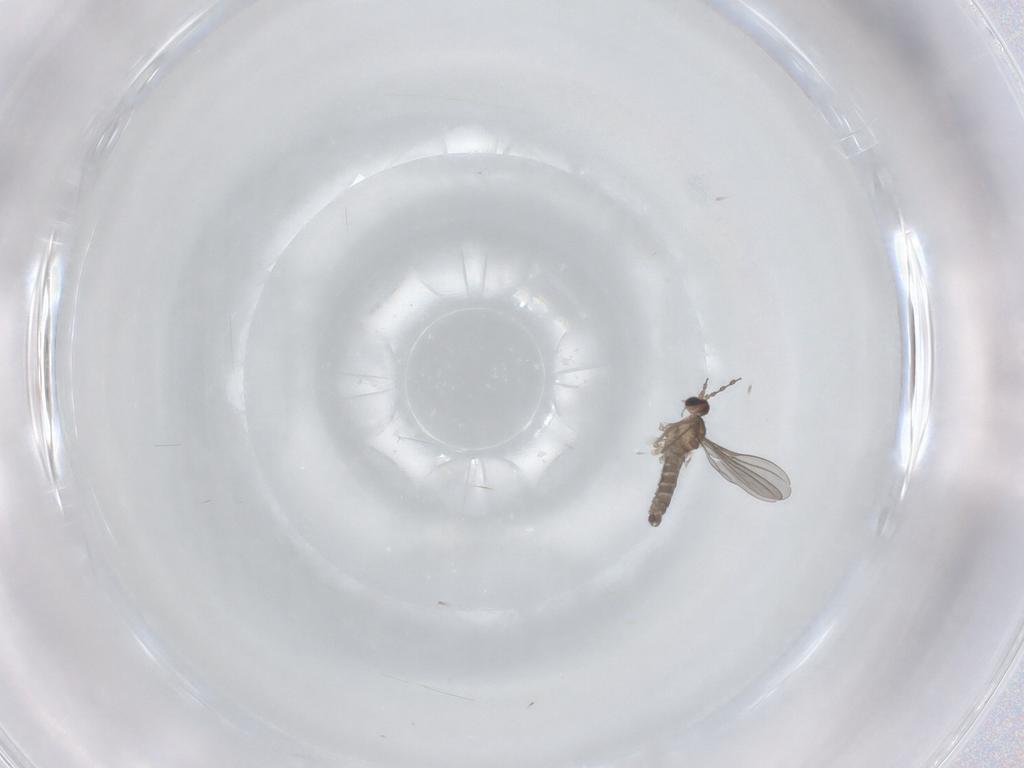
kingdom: Animalia
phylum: Arthropoda
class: Insecta
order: Diptera
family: Cecidomyiidae
